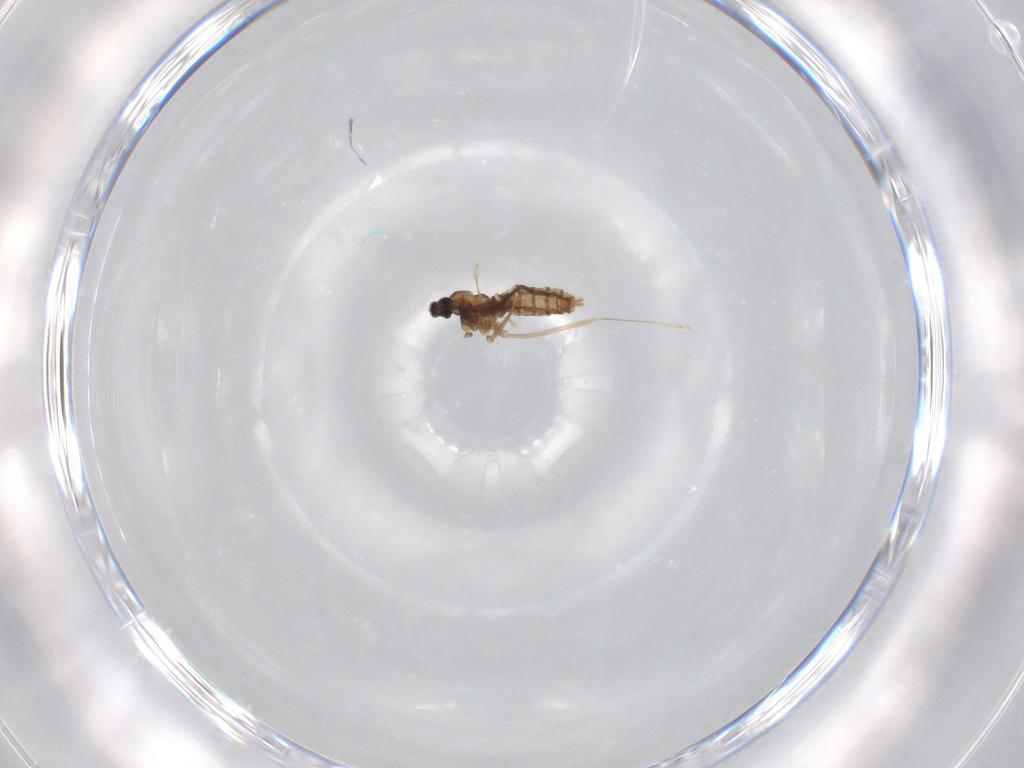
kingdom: Animalia
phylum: Arthropoda
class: Insecta
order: Diptera
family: Cecidomyiidae
